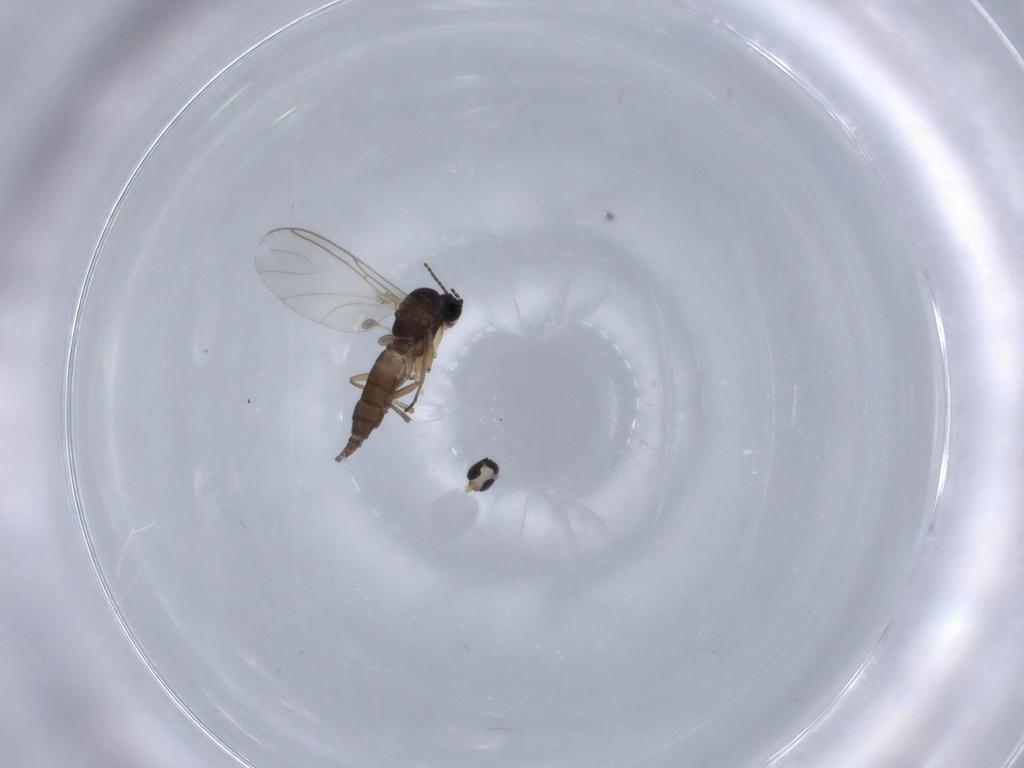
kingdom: Animalia
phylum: Arthropoda
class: Insecta
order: Diptera
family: Sciaridae
